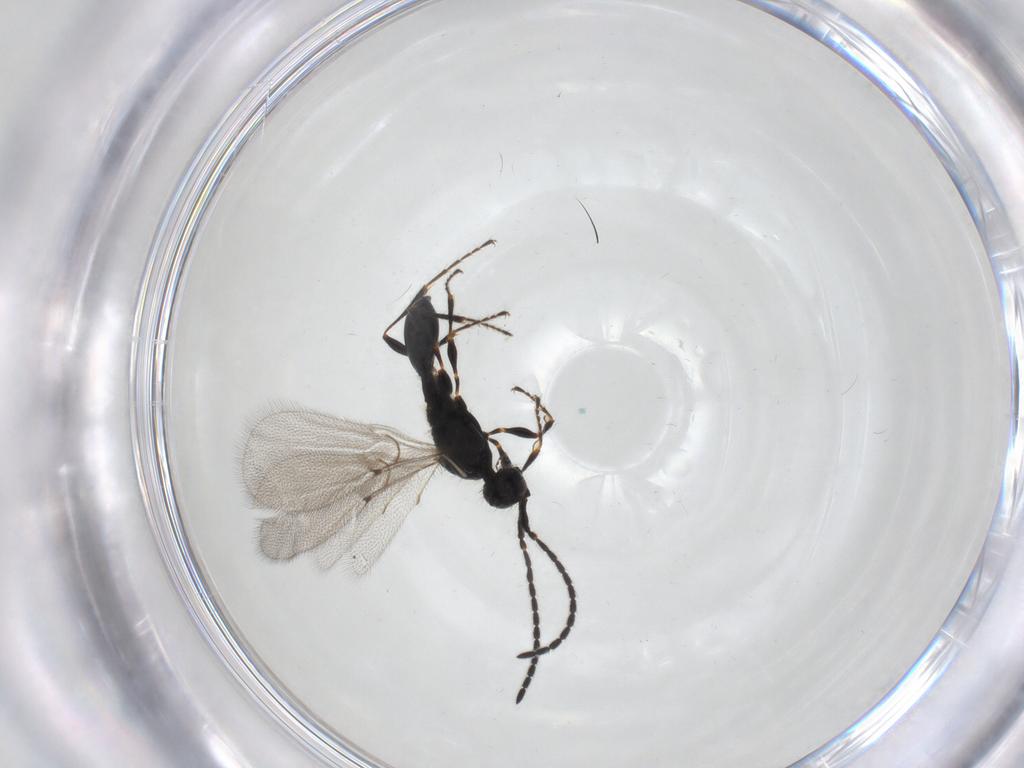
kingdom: Animalia
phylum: Arthropoda
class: Insecta
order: Hymenoptera
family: Diapriidae
